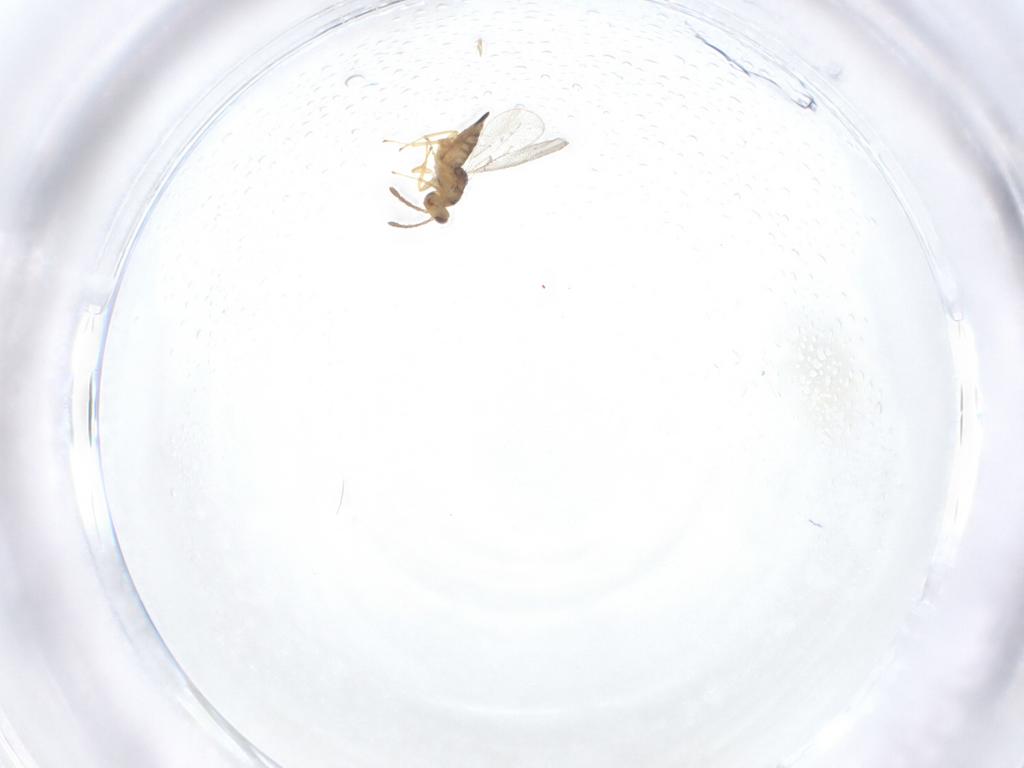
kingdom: Animalia
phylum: Arthropoda
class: Insecta
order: Hymenoptera
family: Eulophidae
